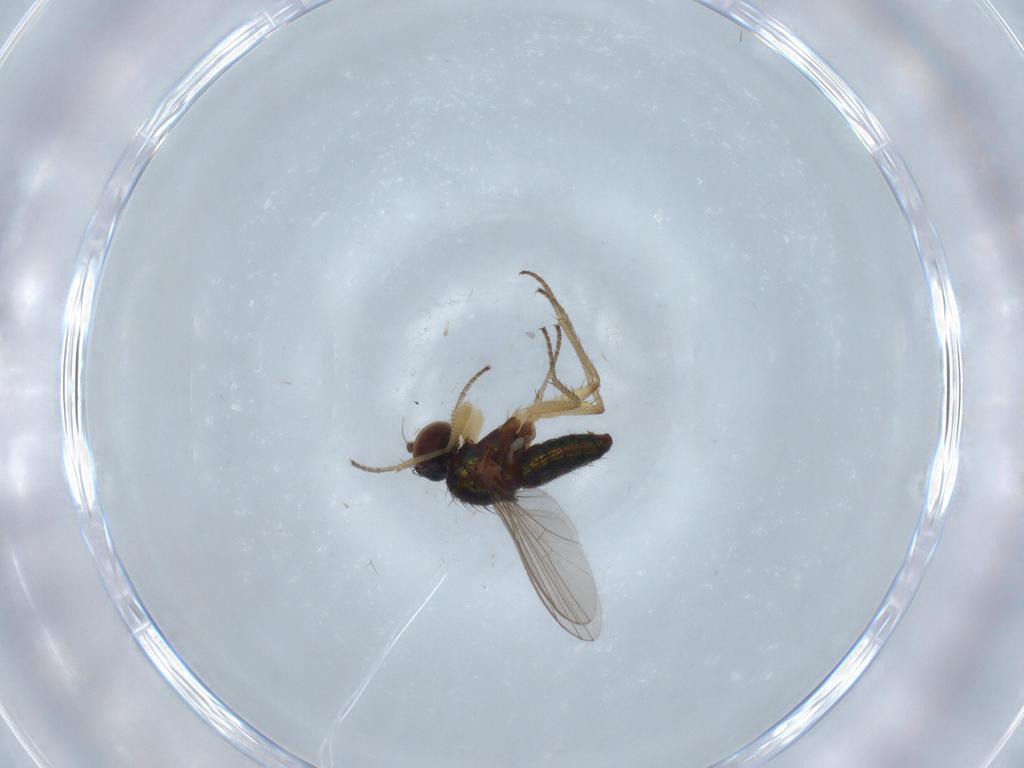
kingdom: Animalia
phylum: Arthropoda
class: Insecta
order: Diptera
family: Dolichopodidae
